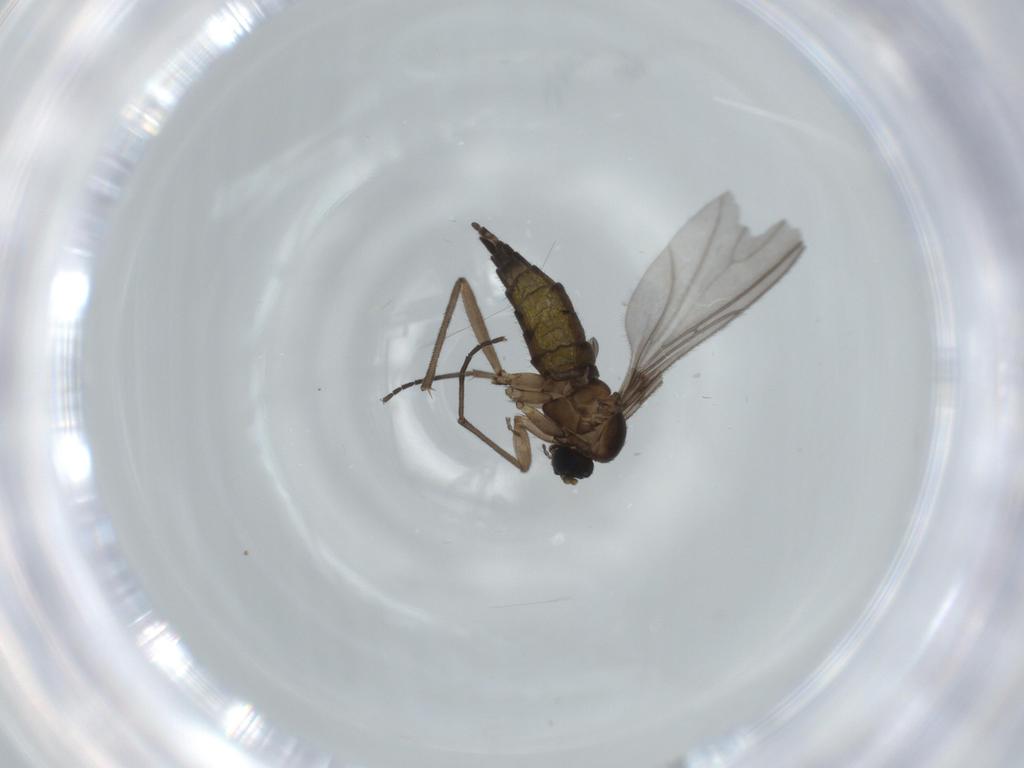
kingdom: Animalia
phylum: Arthropoda
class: Insecta
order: Diptera
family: Sciaridae
